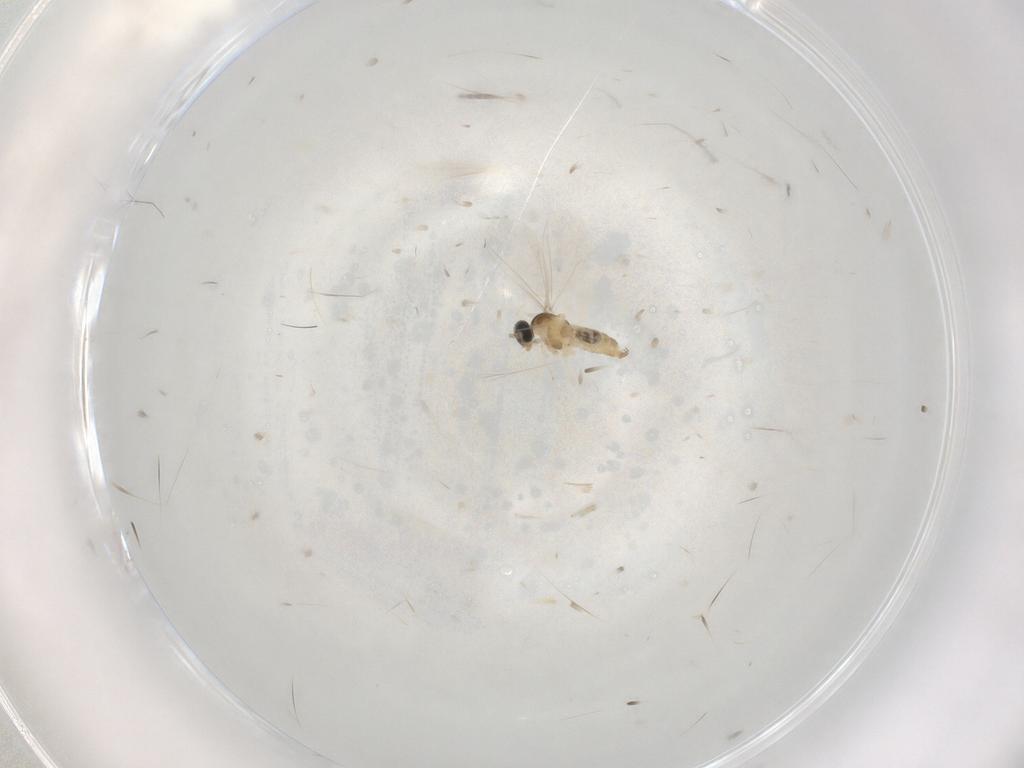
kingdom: Animalia
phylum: Arthropoda
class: Insecta
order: Diptera
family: Cecidomyiidae
